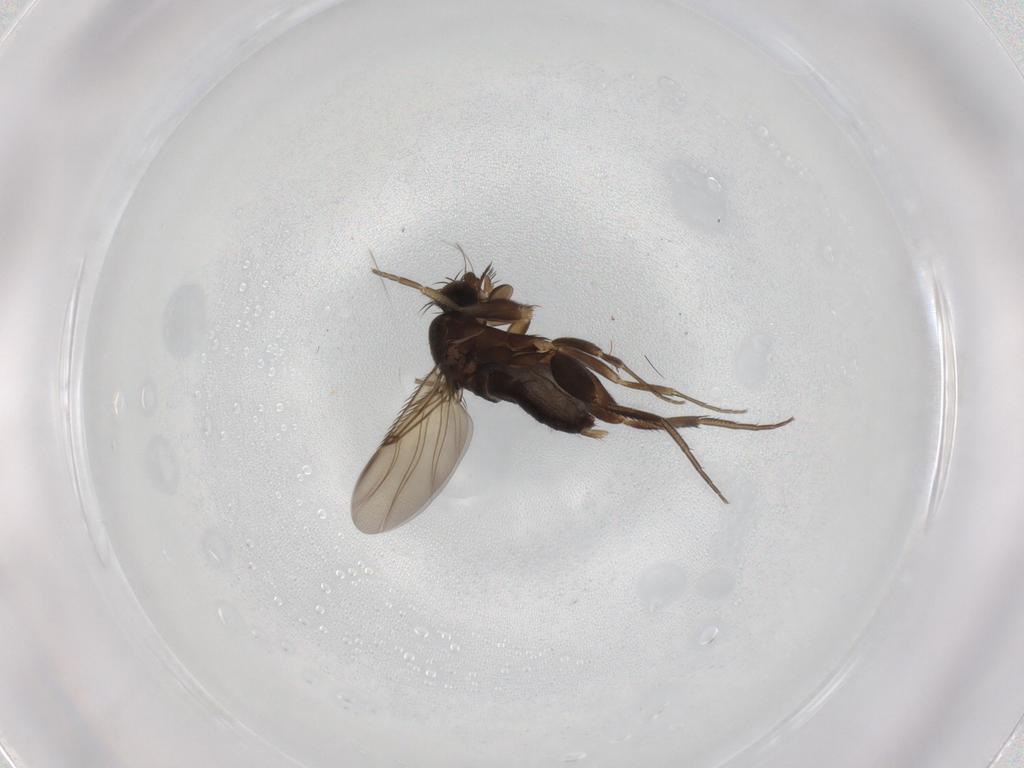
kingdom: Animalia
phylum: Arthropoda
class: Insecta
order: Diptera
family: Phoridae
